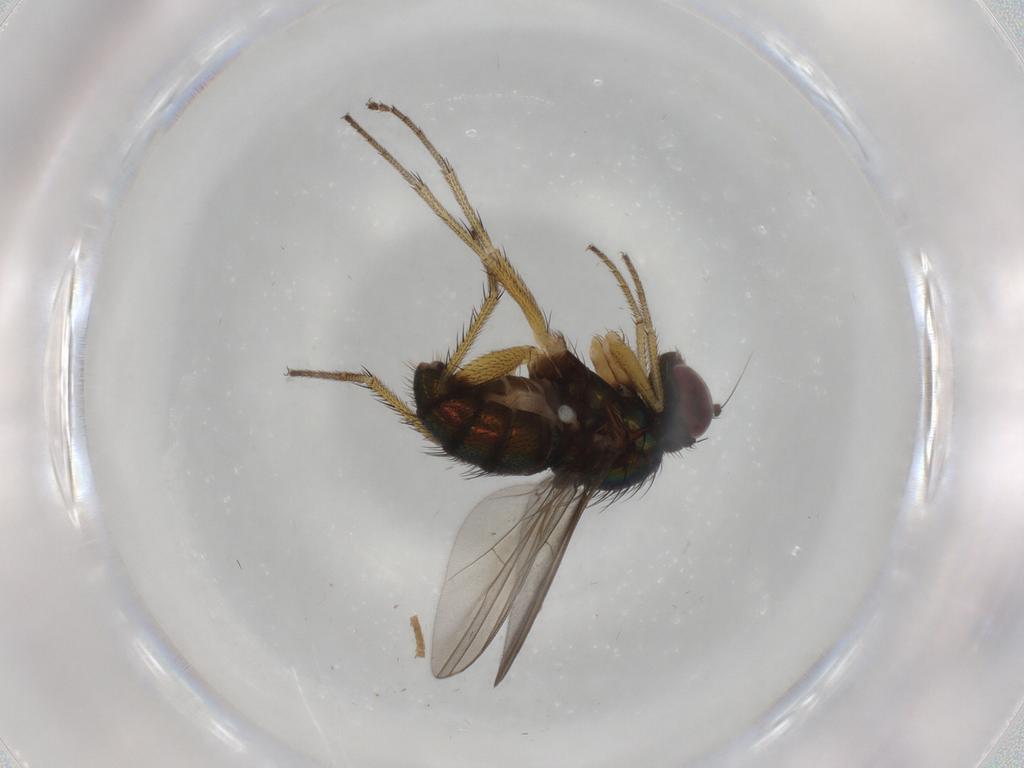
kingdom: Animalia
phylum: Arthropoda
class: Insecta
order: Diptera
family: Dolichopodidae
